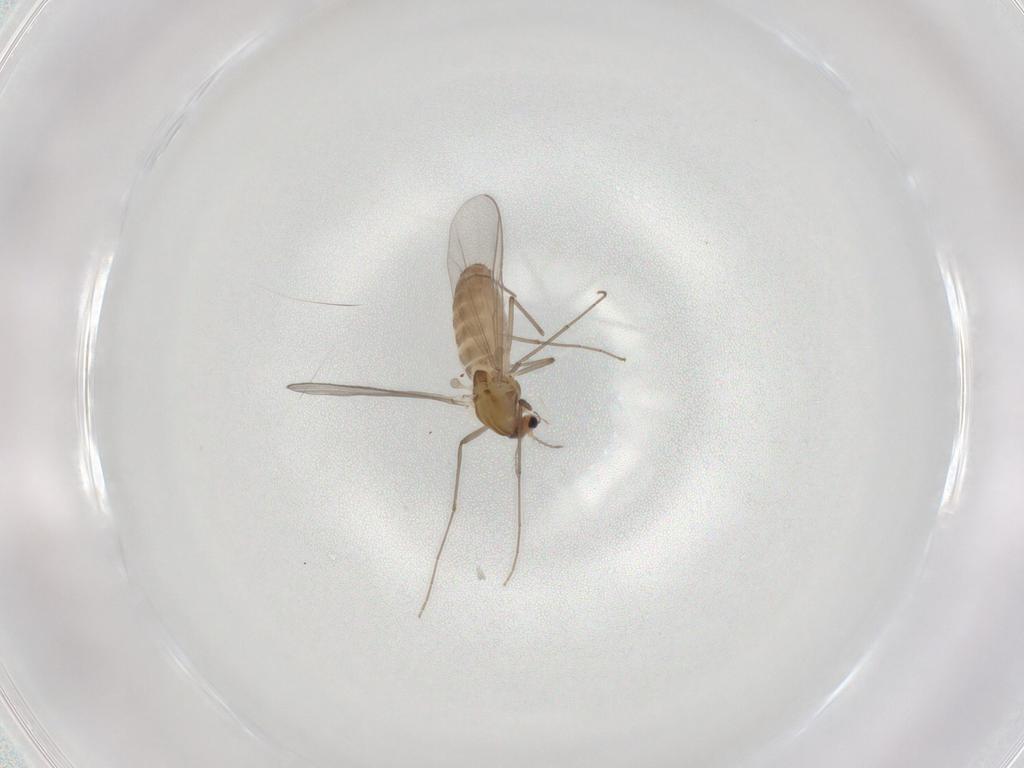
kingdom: Animalia
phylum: Arthropoda
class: Insecta
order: Diptera
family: Chironomidae
